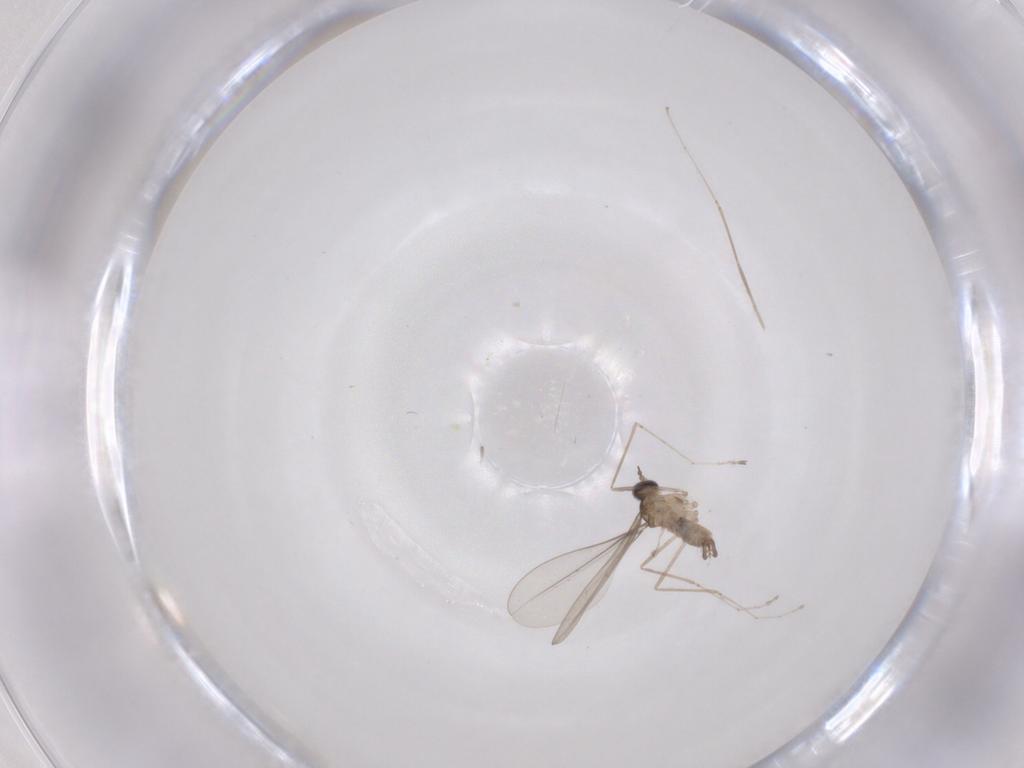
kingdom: Animalia
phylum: Arthropoda
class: Insecta
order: Diptera
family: Cecidomyiidae
